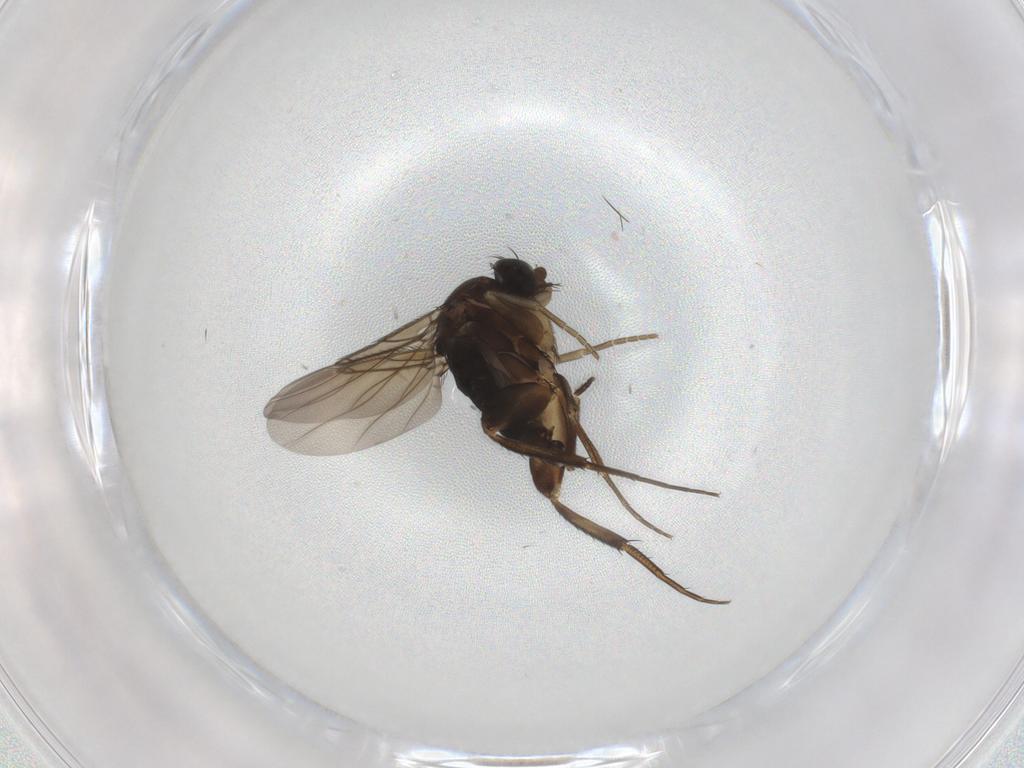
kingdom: Animalia
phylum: Arthropoda
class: Insecta
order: Diptera
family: Phoridae
